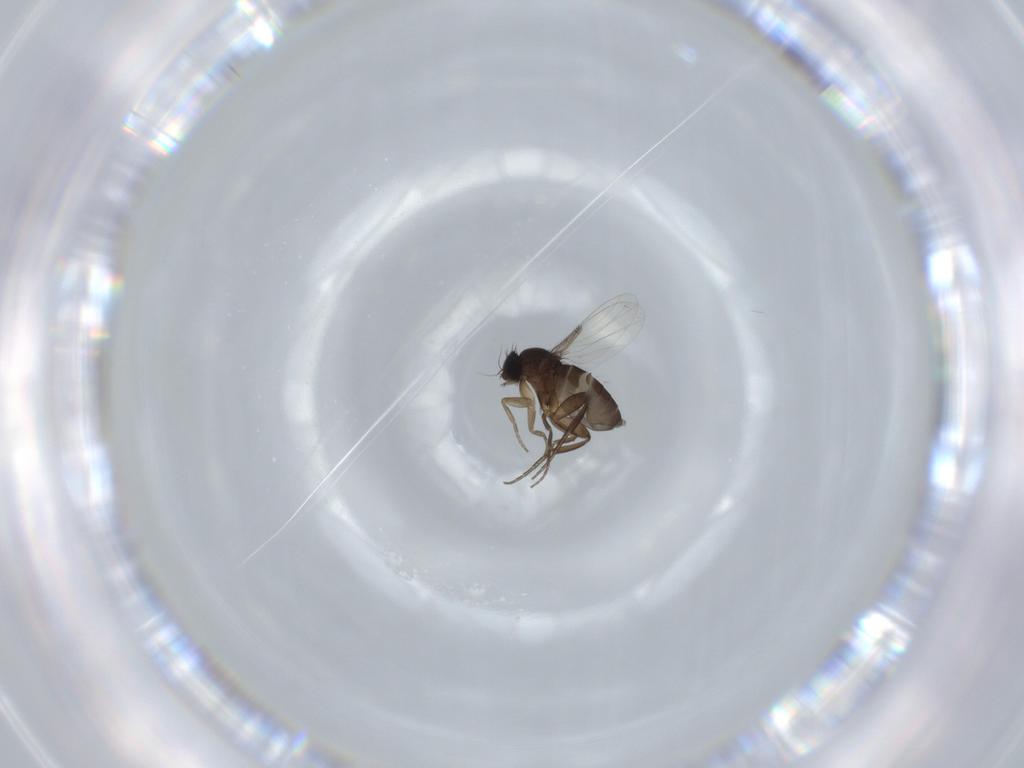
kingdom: Animalia
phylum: Arthropoda
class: Insecta
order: Diptera
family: Phoridae
